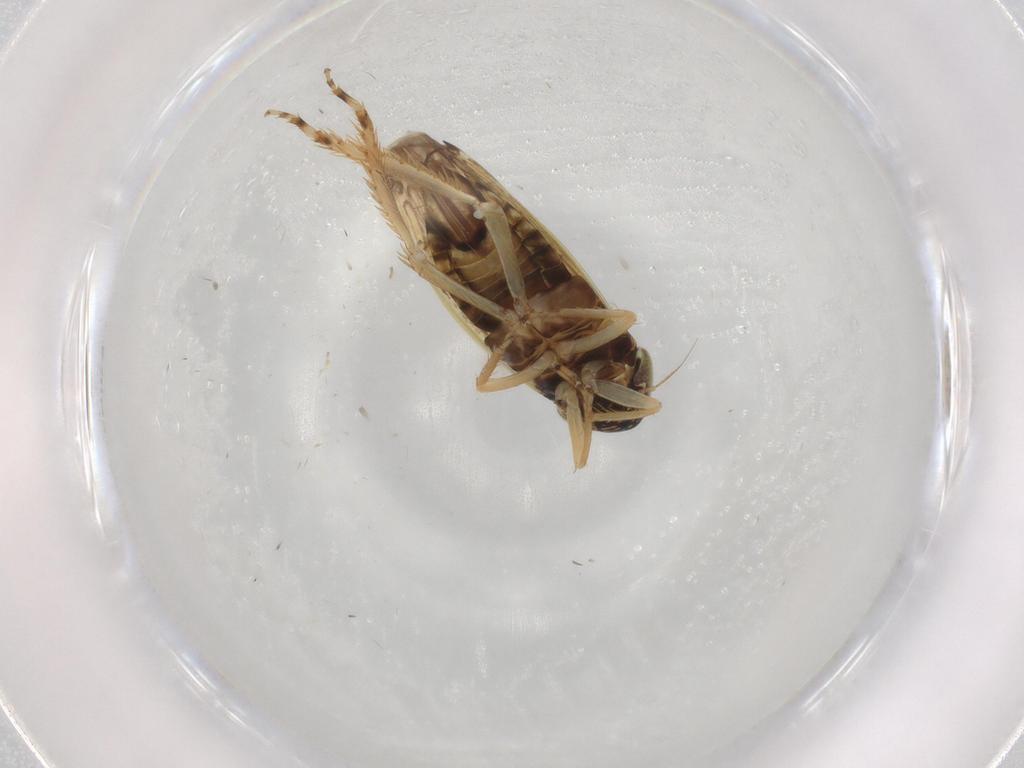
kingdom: Animalia
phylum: Arthropoda
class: Insecta
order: Hemiptera
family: Cicadellidae
